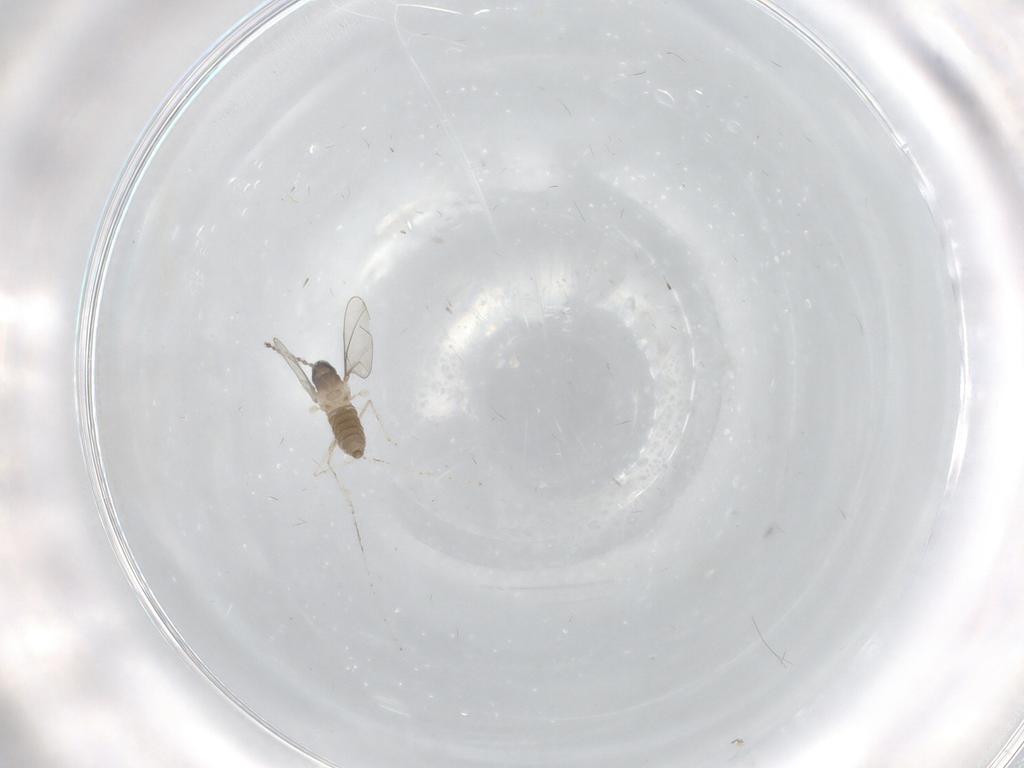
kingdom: Animalia
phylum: Arthropoda
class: Insecta
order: Diptera
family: Cecidomyiidae
